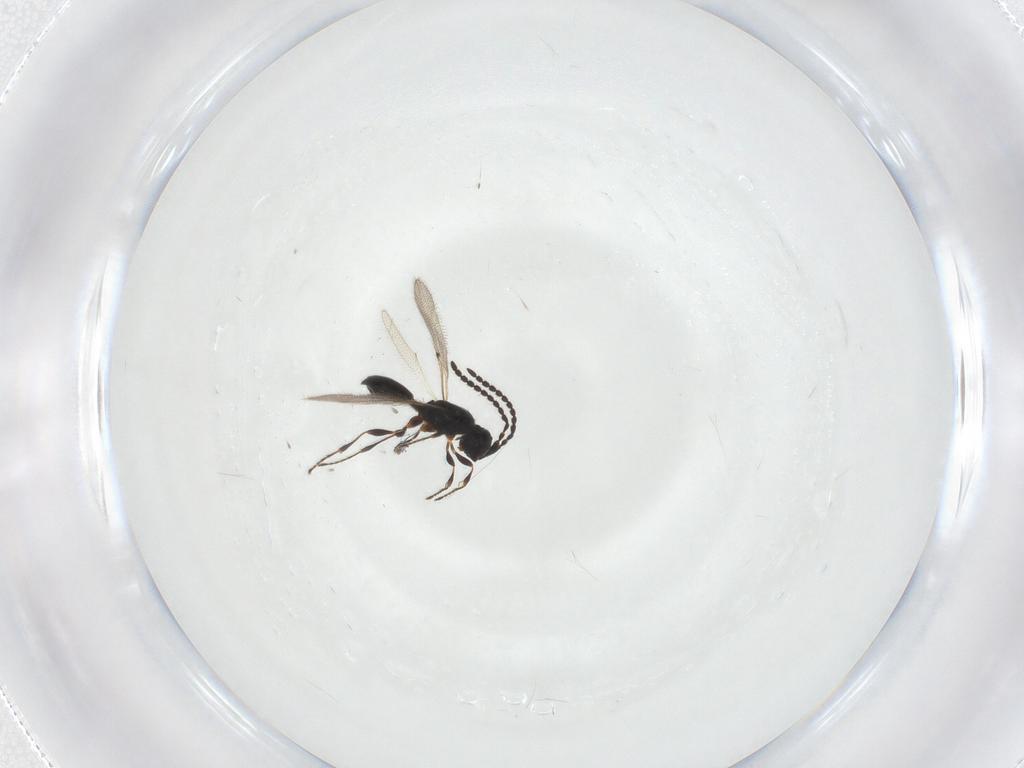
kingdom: Animalia
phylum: Arthropoda
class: Insecta
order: Hymenoptera
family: Diapriidae
